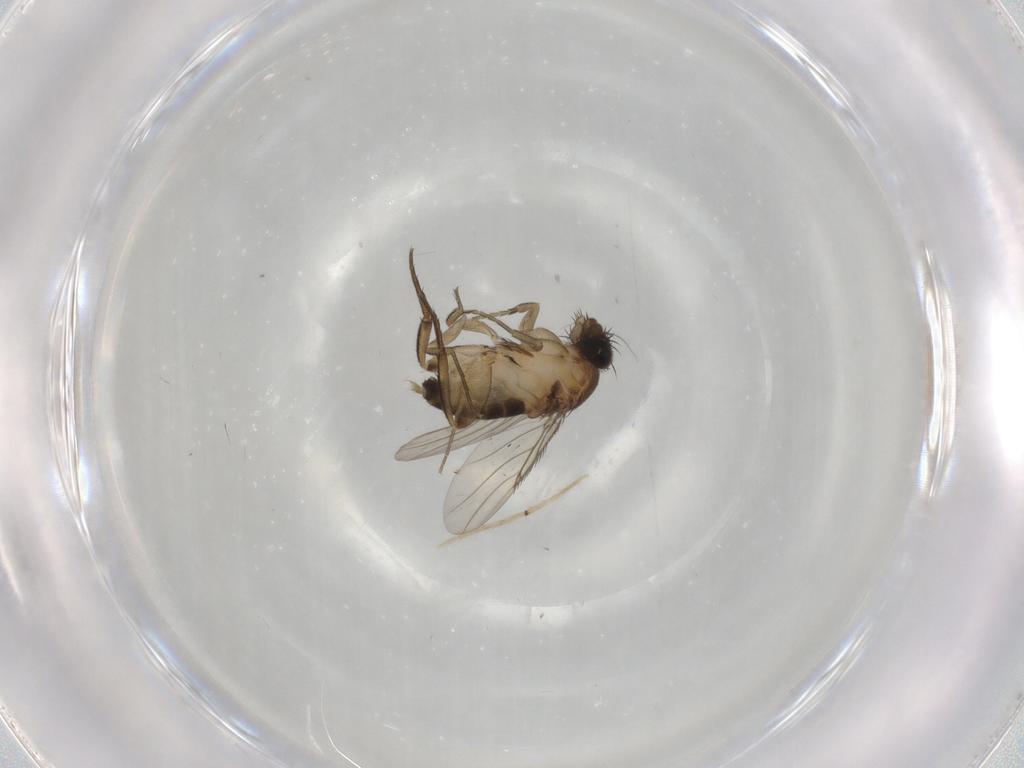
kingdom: Animalia
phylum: Arthropoda
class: Insecta
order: Diptera
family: Phoridae
